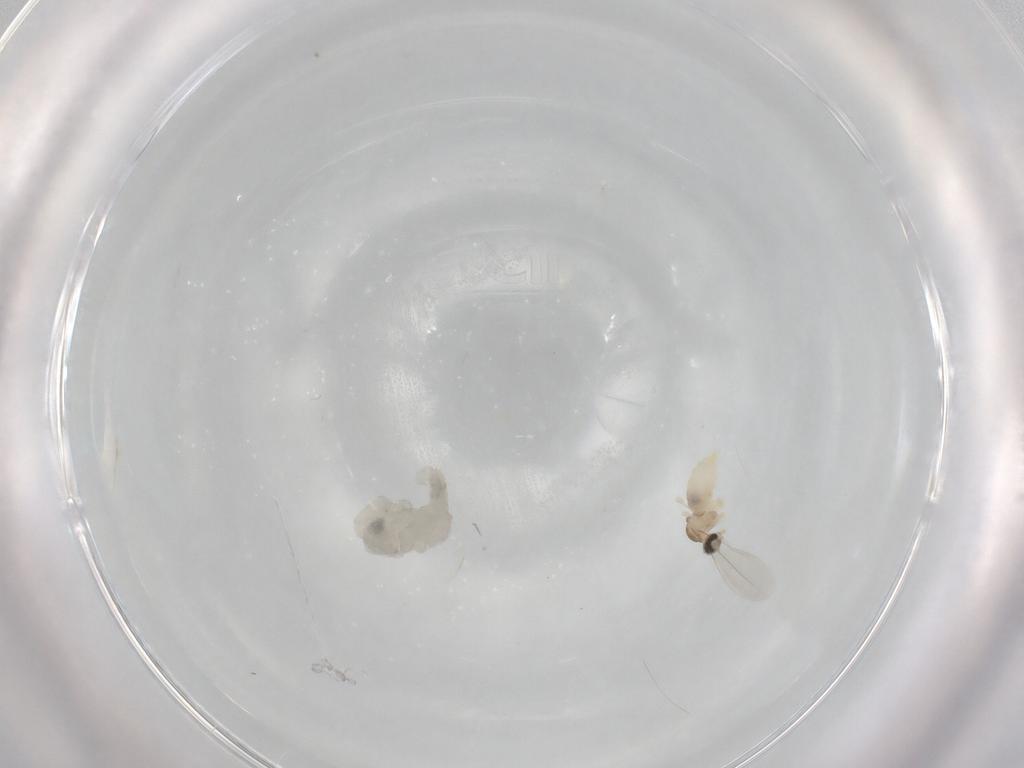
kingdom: Animalia
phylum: Arthropoda
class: Insecta
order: Diptera
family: Cecidomyiidae
